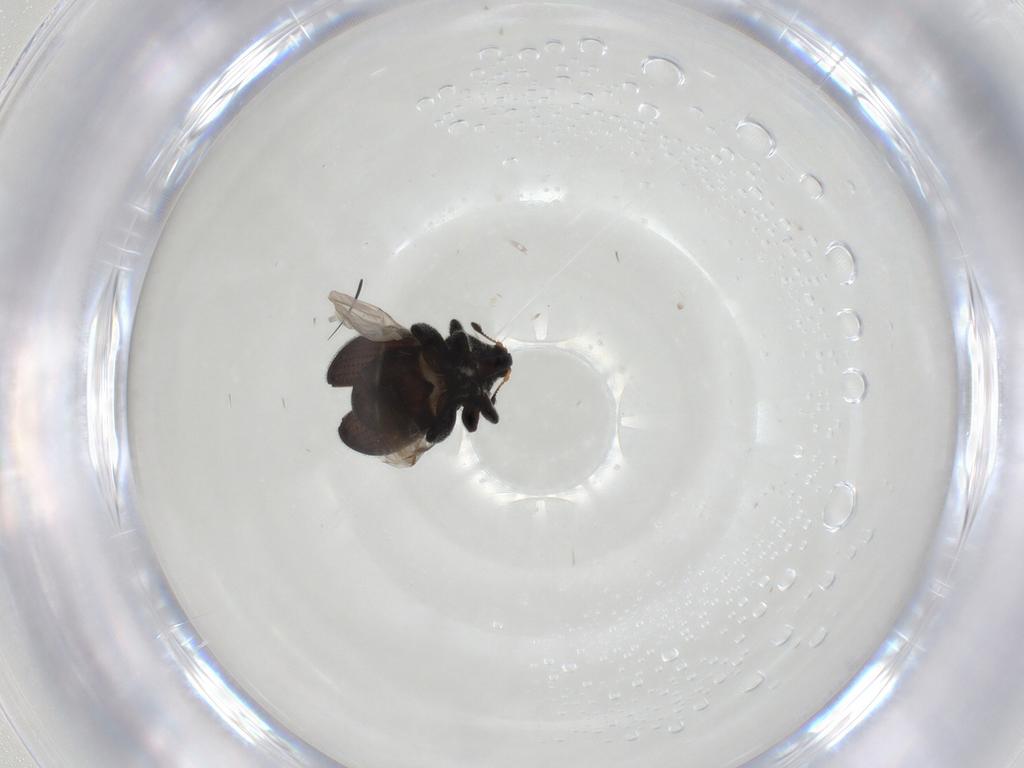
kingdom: Animalia
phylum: Arthropoda
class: Insecta
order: Coleoptera
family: Curculionidae
